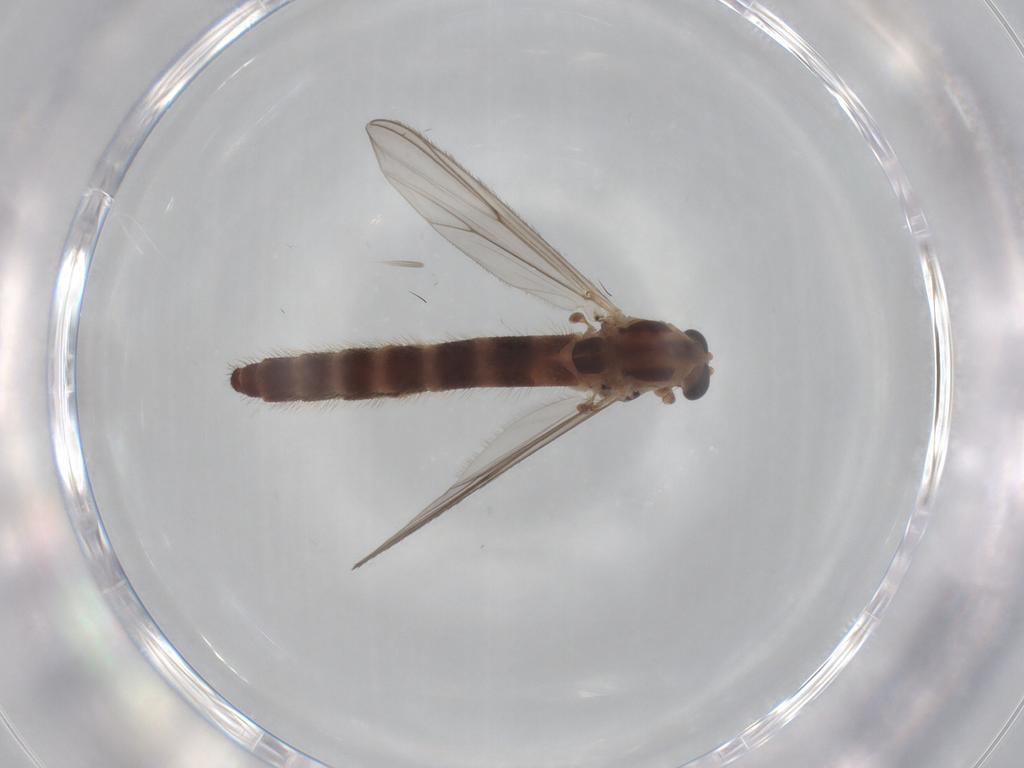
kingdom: Animalia
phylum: Arthropoda
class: Insecta
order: Diptera
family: Chironomidae
